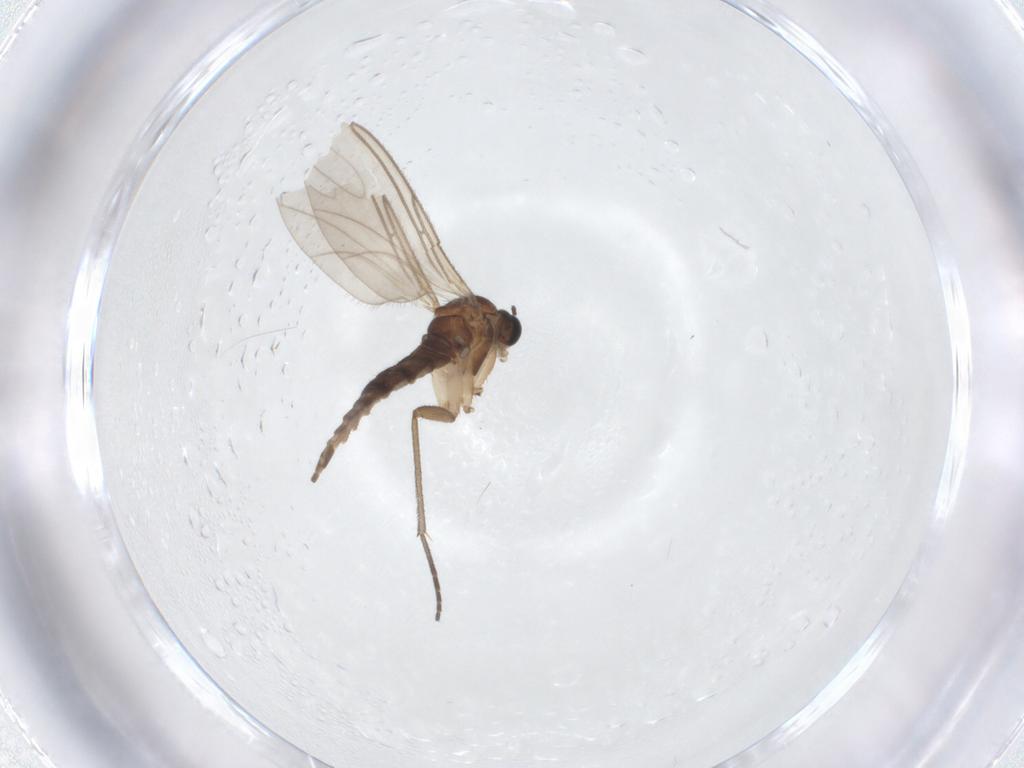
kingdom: Animalia
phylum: Arthropoda
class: Insecta
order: Diptera
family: Sciaridae
